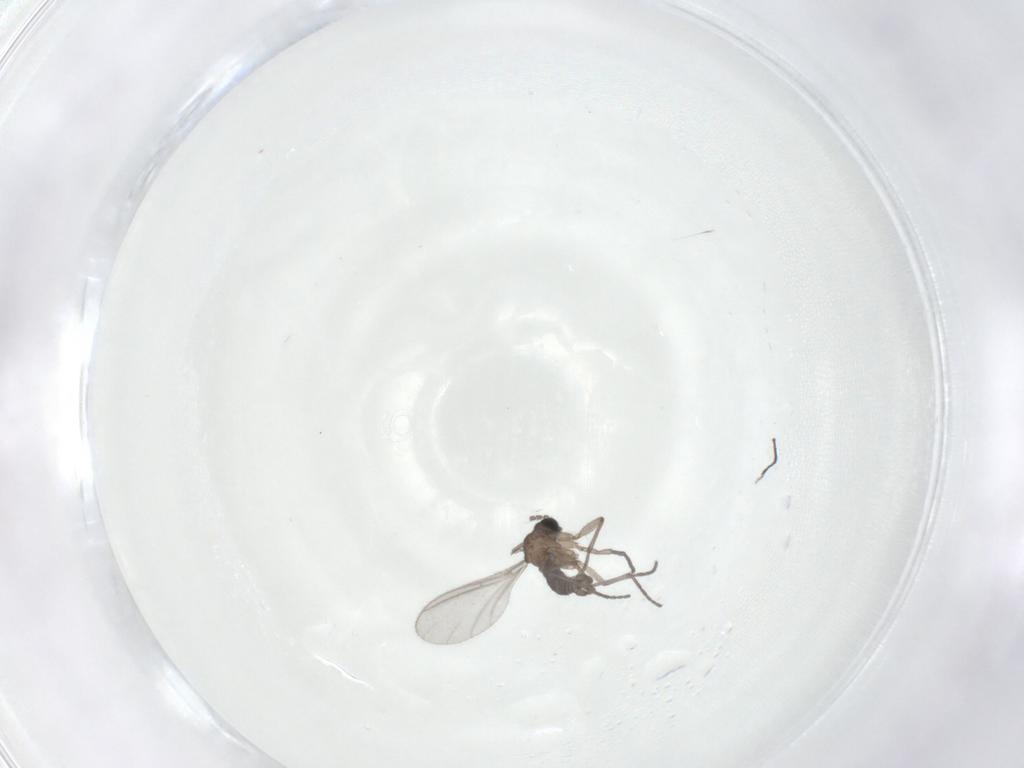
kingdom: Animalia
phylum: Arthropoda
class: Insecta
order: Diptera
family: Sciaridae
